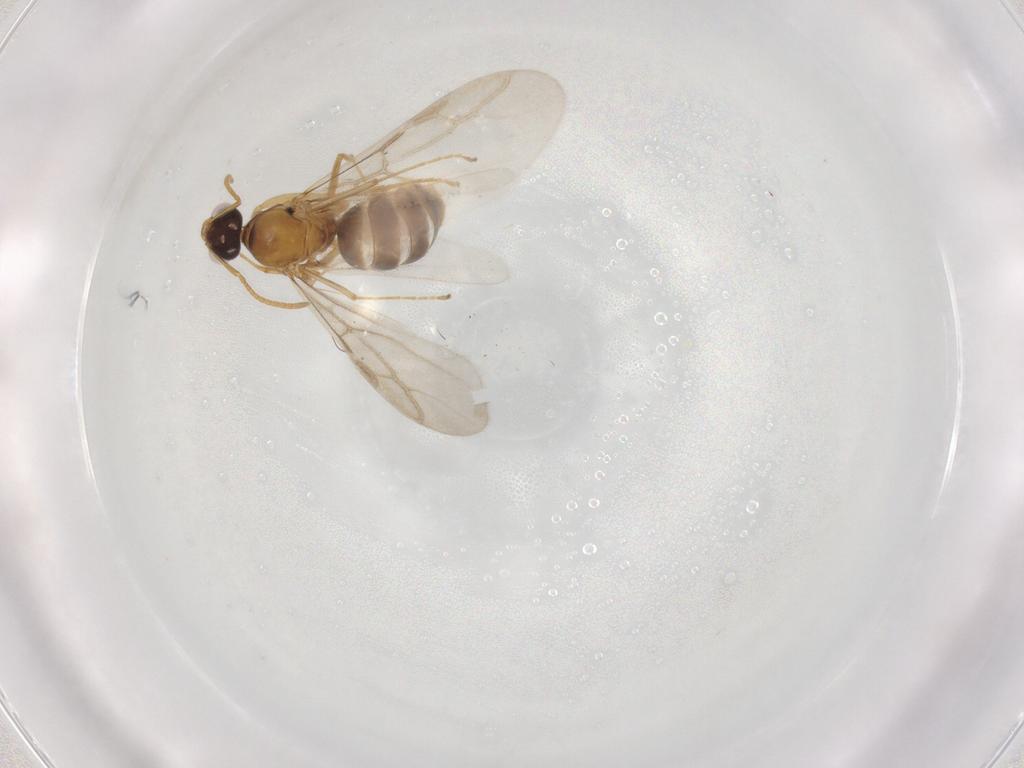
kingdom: Animalia
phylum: Arthropoda
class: Insecta
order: Hymenoptera
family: Formicidae
